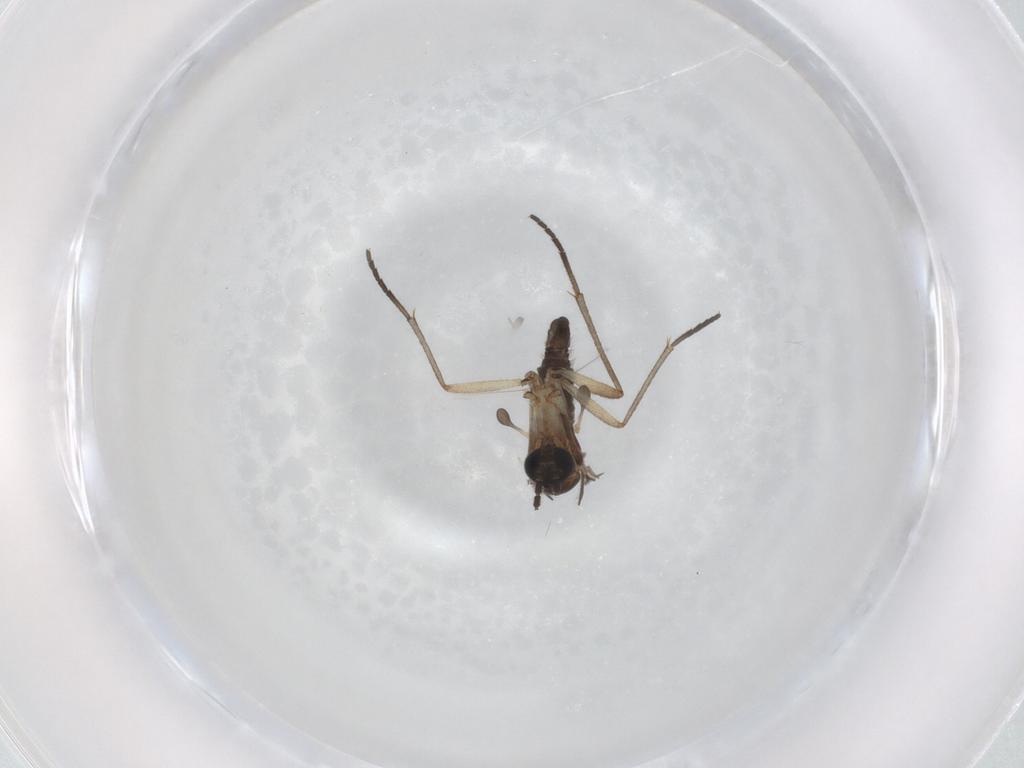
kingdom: Animalia
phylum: Arthropoda
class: Insecta
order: Diptera
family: Sciaridae
